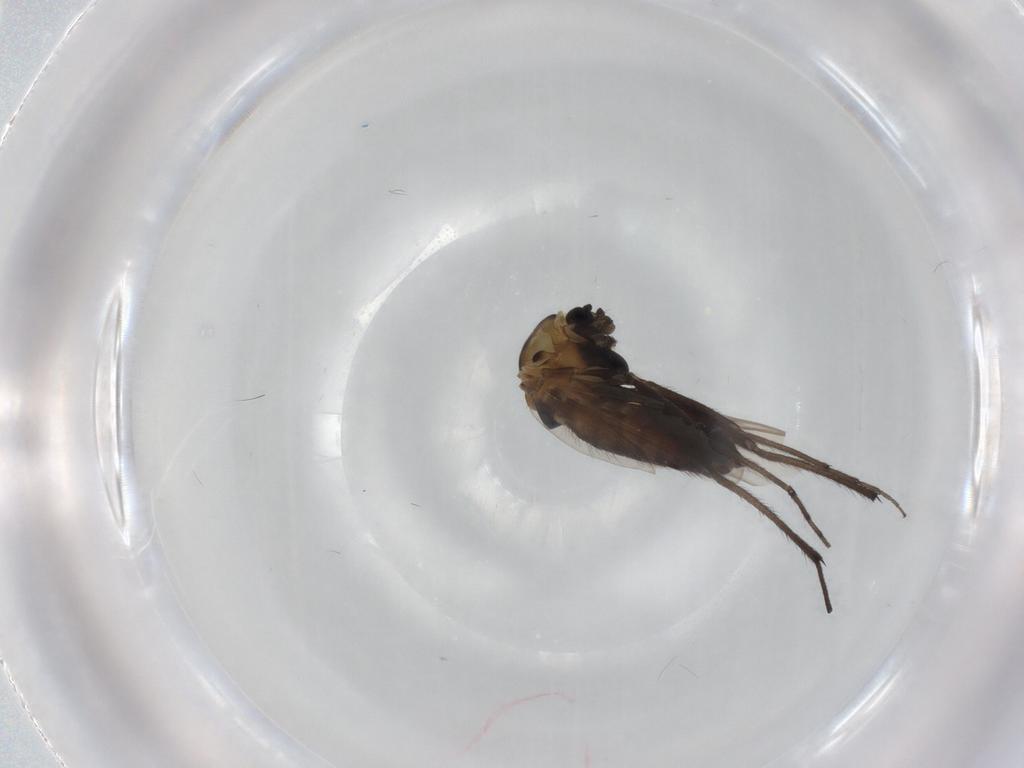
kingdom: Animalia
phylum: Arthropoda
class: Insecta
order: Diptera
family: Chironomidae
